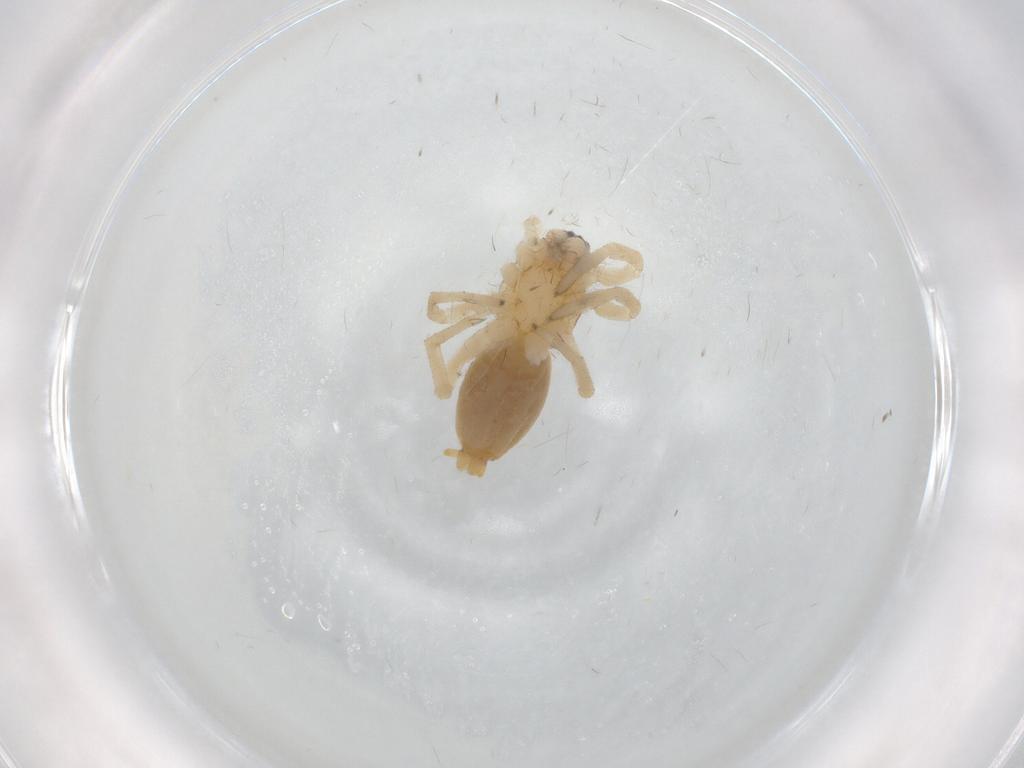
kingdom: Animalia
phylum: Arthropoda
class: Arachnida
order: Araneae
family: Clubionidae
